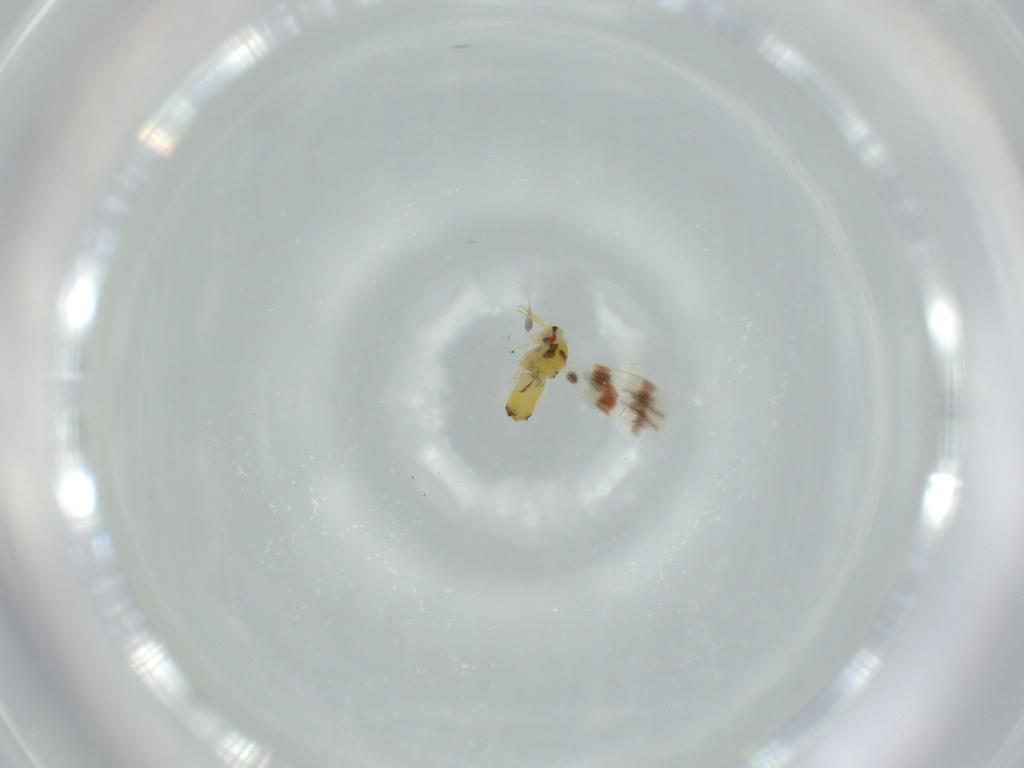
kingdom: Animalia
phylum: Arthropoda
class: Insecta
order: Hemiptera
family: Aleyrodidae
